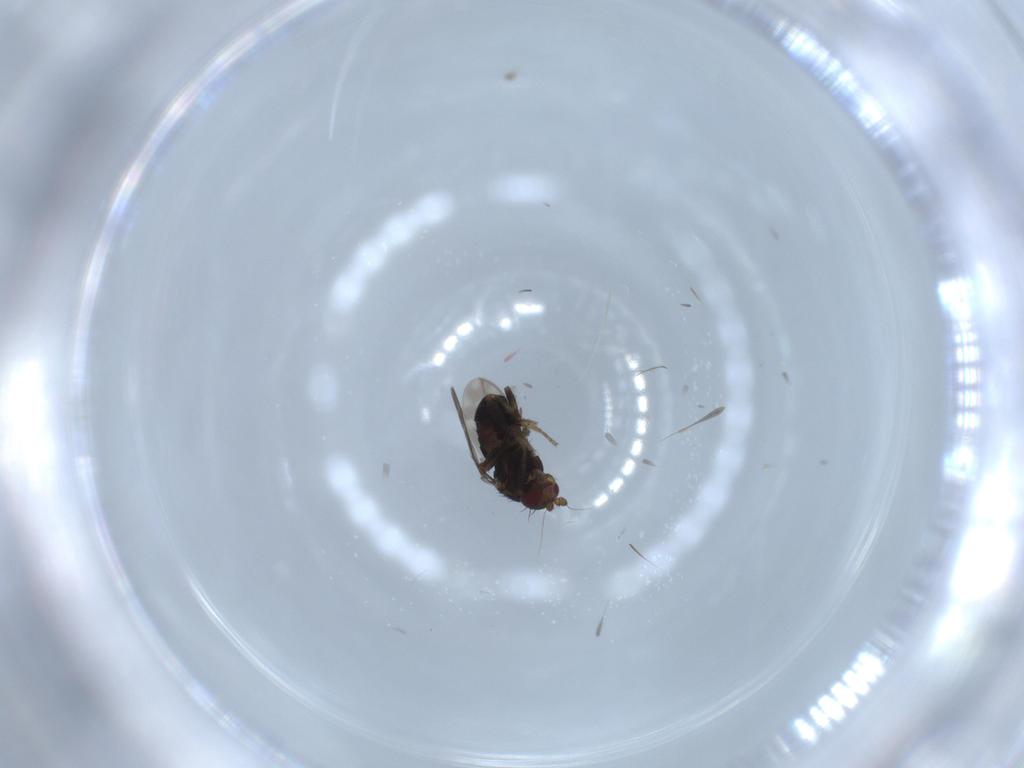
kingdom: Animalia
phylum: Arthropoda
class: Insecta
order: Diptera
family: Sphaeroceridae
